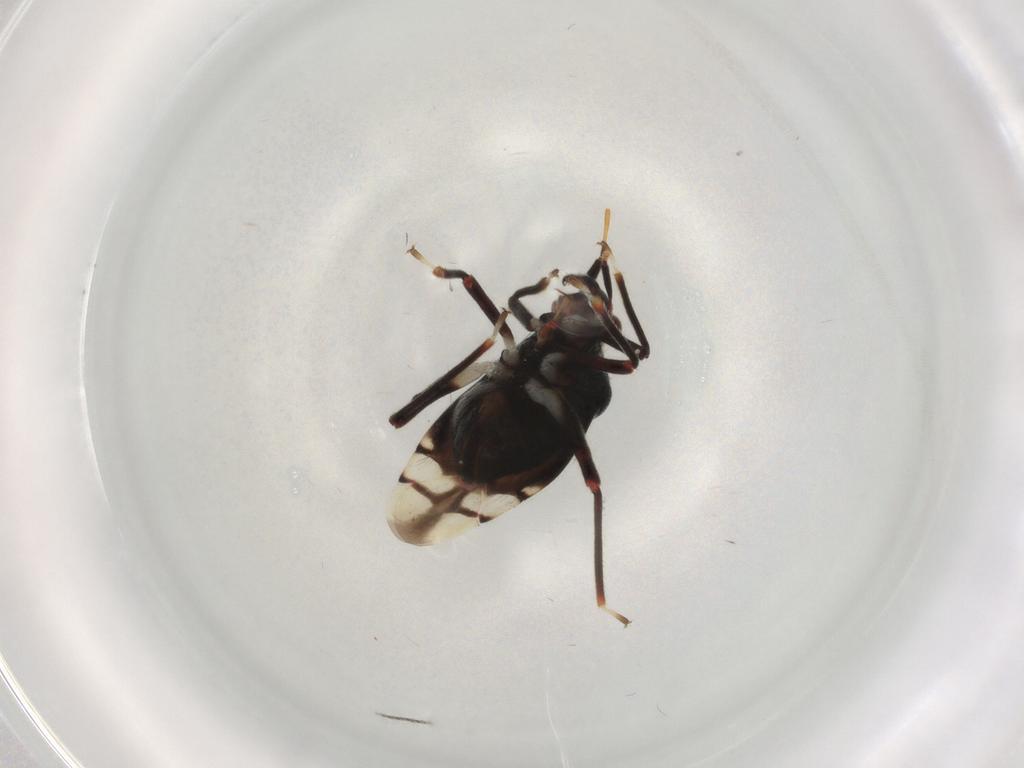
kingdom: Animalia
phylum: Arthropoda
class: Insecta
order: Hemiptera
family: Miridae
